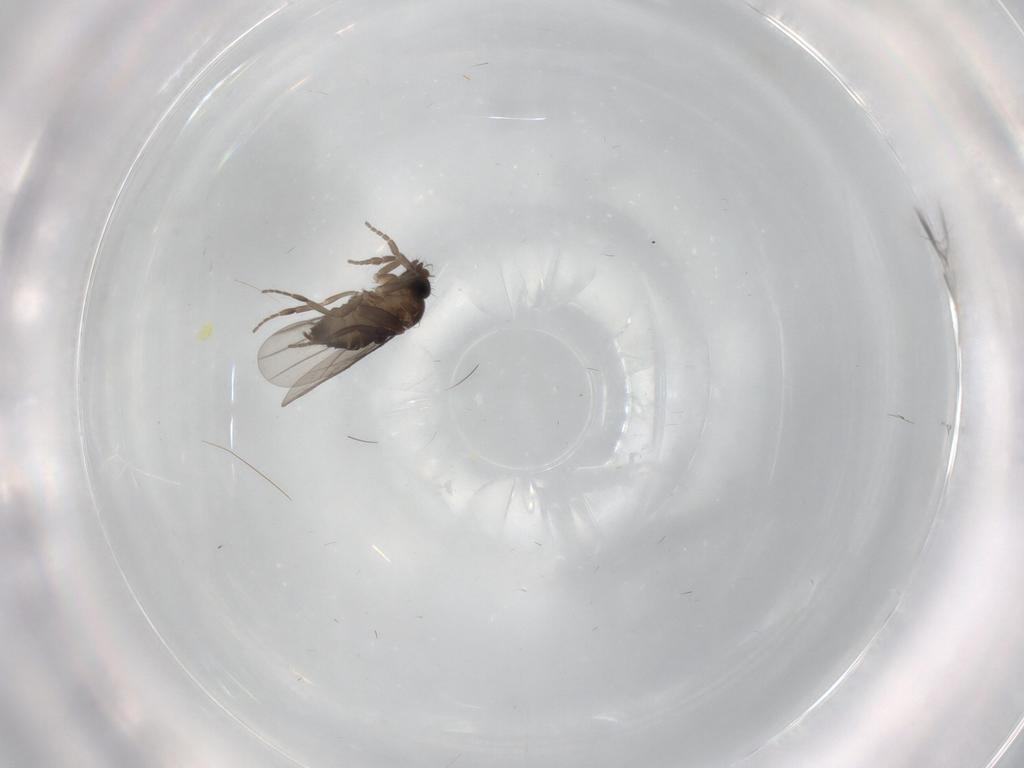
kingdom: Animalia
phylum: Arthropoda
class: Insecta
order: Diptera
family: Phoridae
